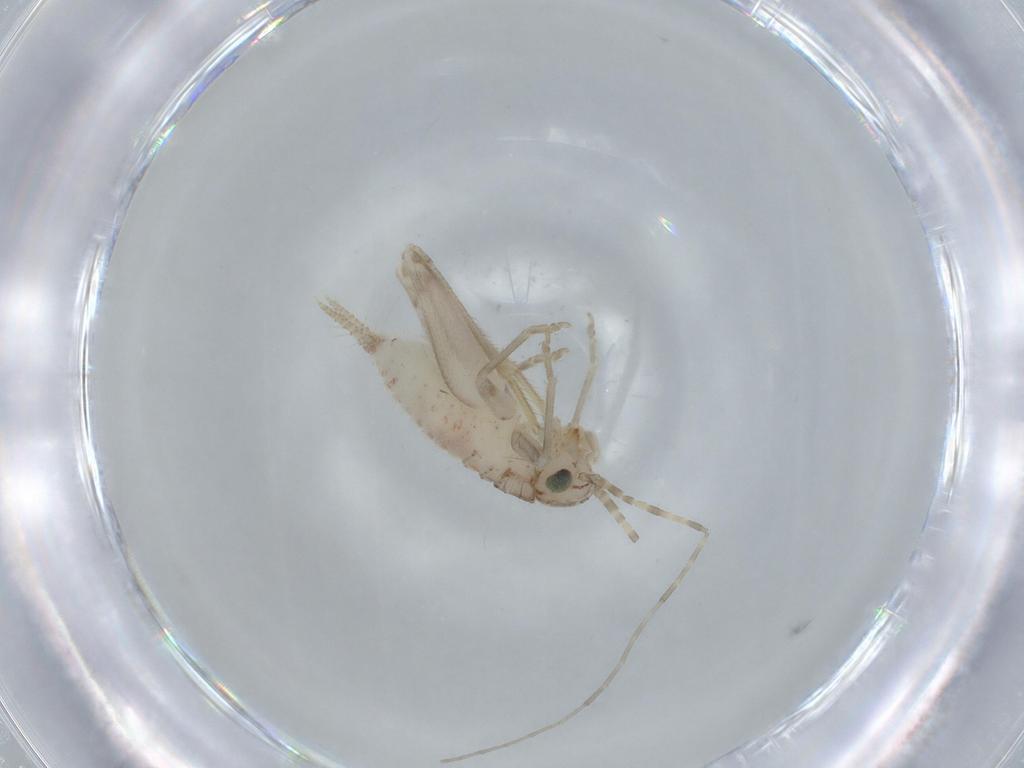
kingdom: Animalia
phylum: Arthropoda
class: Insecta
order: Orthoptera
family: Trigonidiidae
